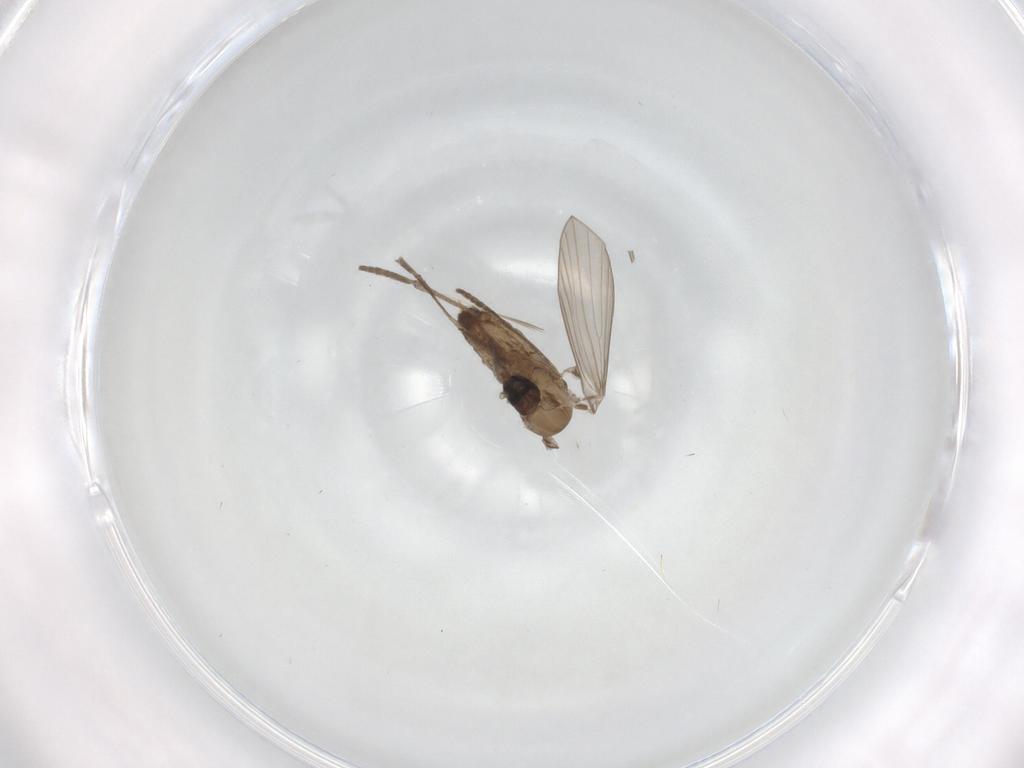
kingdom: Animalia
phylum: Arthropoda
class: Insecta
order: Diptera
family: Psychodidae
